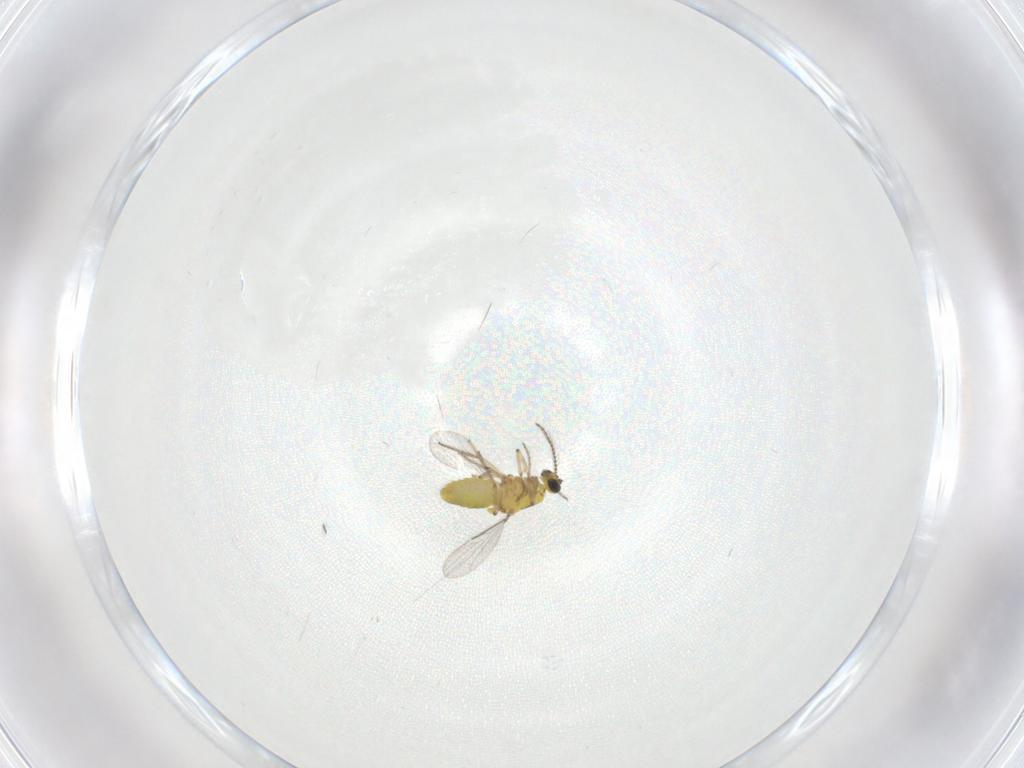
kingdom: Animalia
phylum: Arthropoda
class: Insecta
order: Diptera
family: Ceratopogonidae
